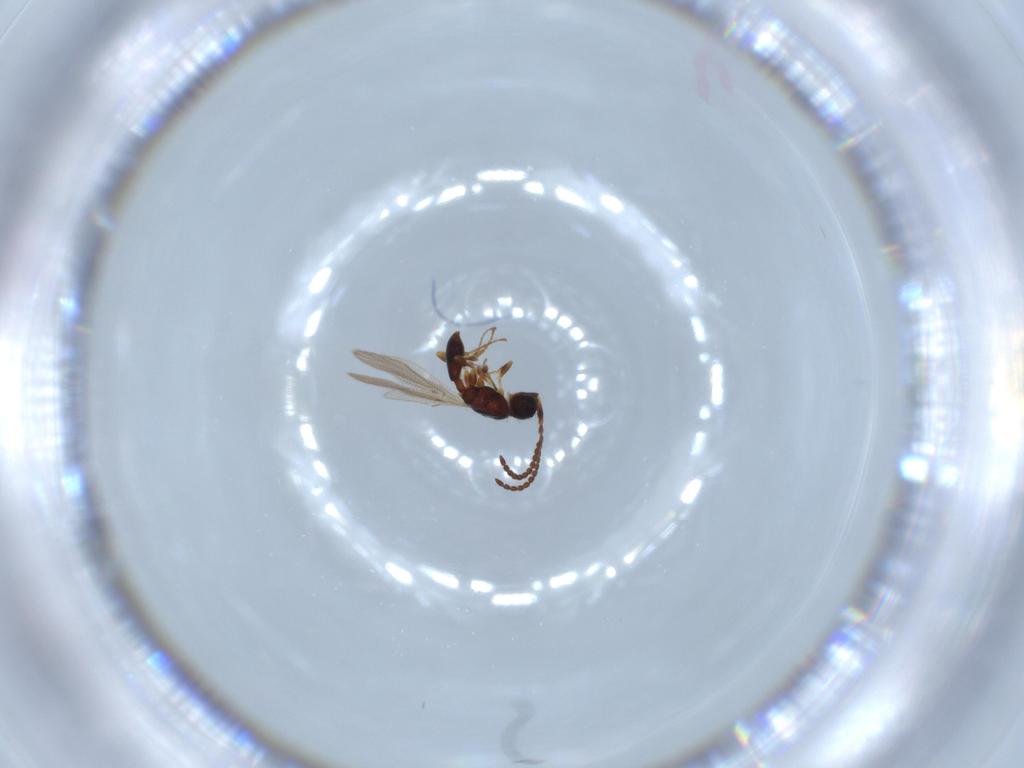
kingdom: Animalia
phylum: Arthropoda
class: Insecta
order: Hymenoptera
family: Diapriidae
